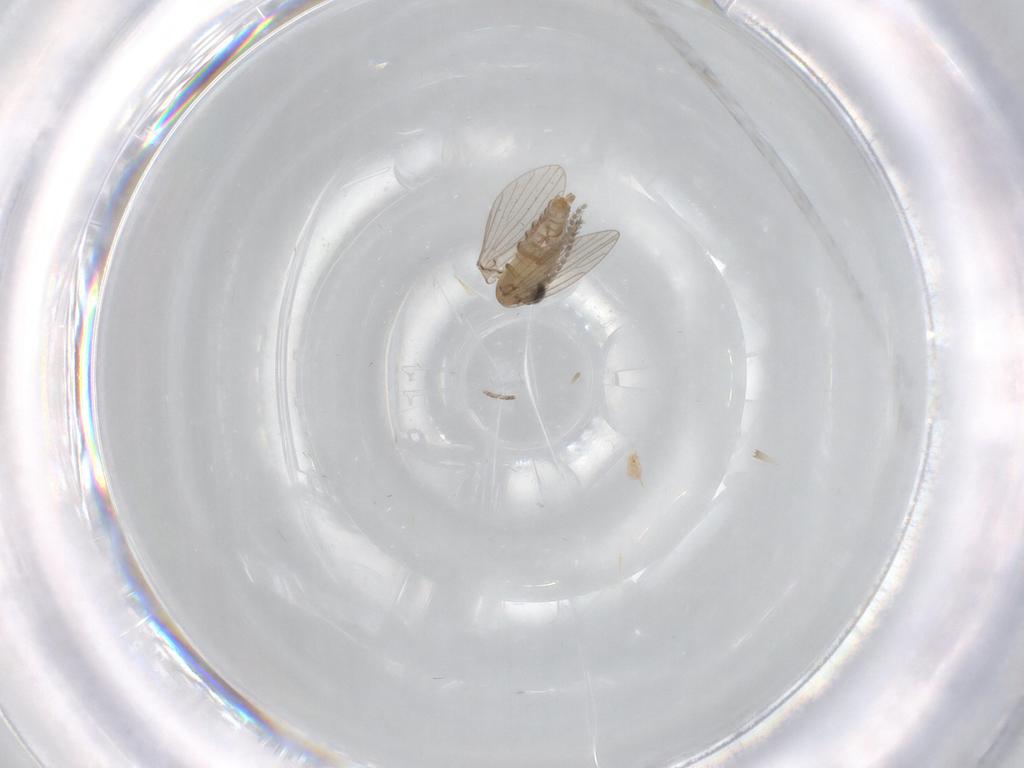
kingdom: Animalia
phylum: Arthropoda
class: Insecta
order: Diptera
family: Psychodidae
